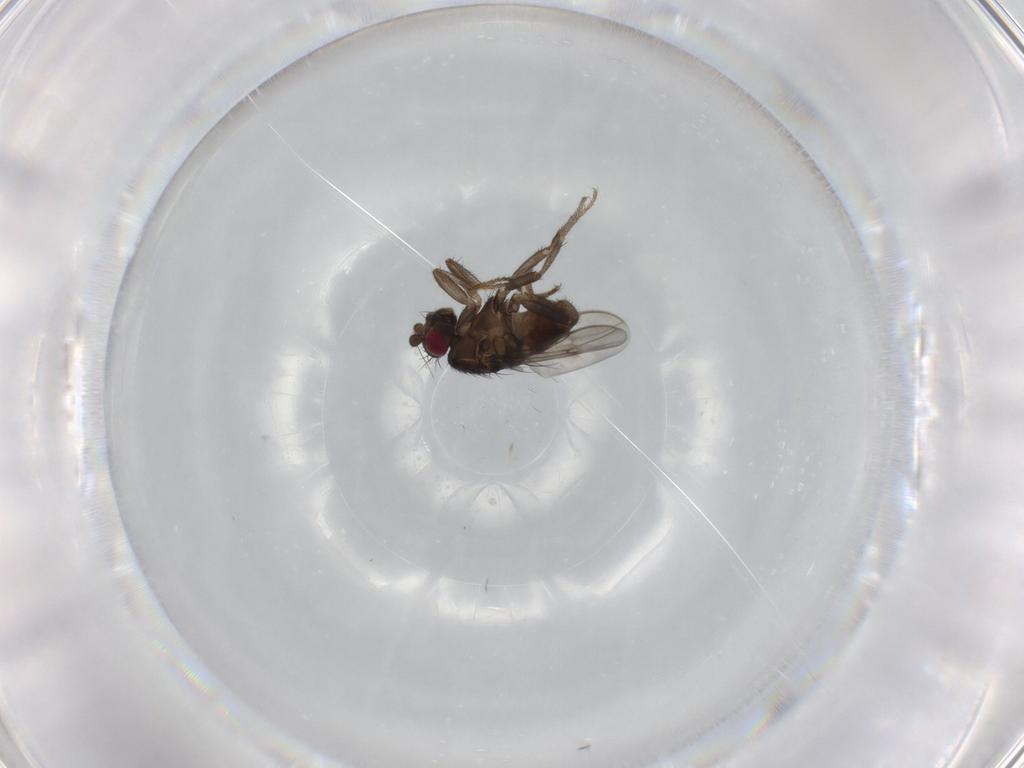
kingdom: Animalia
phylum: Arthropoda
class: Insecta
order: Diptera
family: Sphaeroceridae
